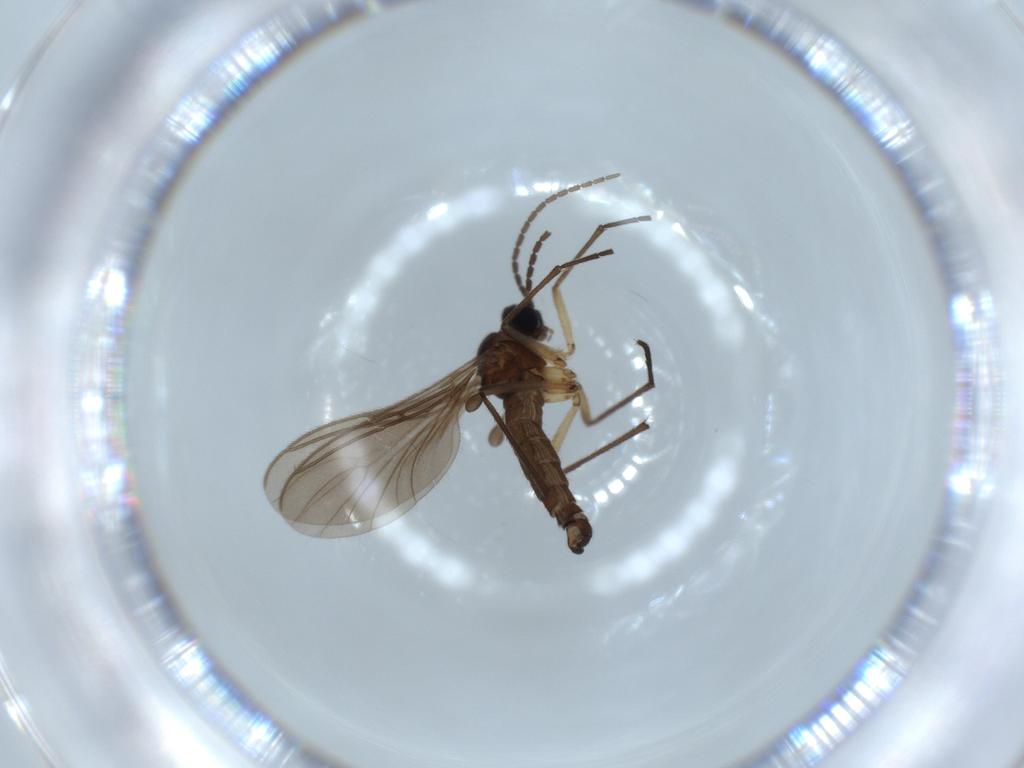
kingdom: Animalia
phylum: Arthropoda
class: Insecta
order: Diptera
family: Sciaridae
